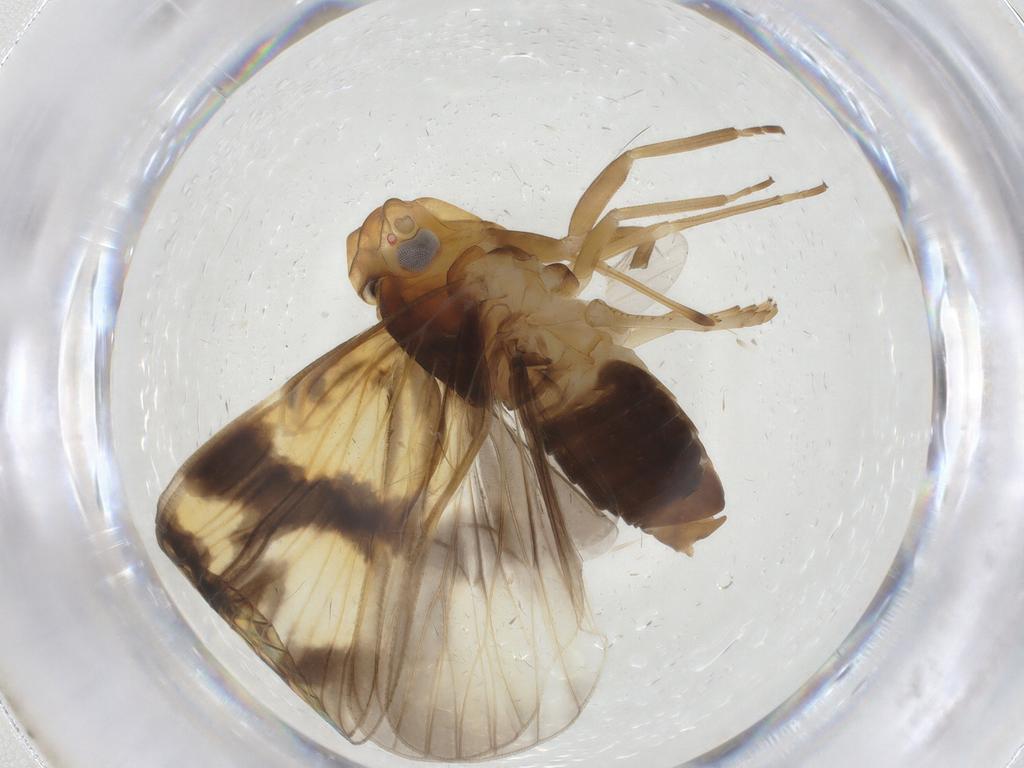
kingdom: Animalia
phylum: Arthropoda
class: Insecta
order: Hemiptera
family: Cixiidae
